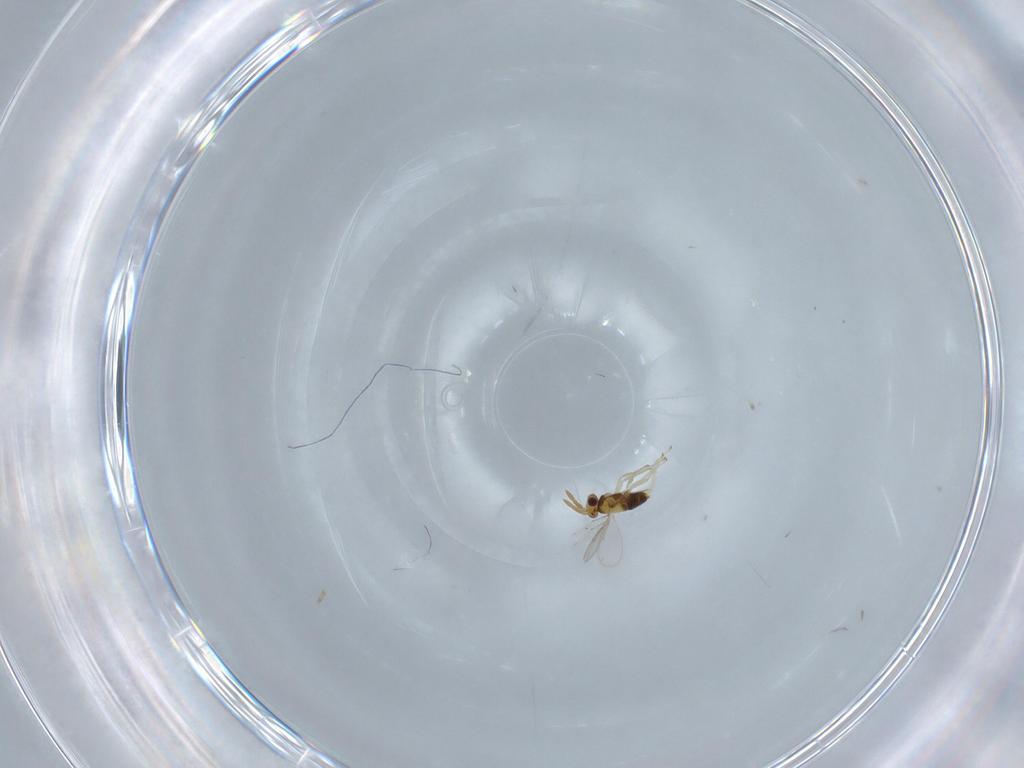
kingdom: Animalia
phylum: Arthropoda
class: Insecta
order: Hymenoptera
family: Aphelinidae
